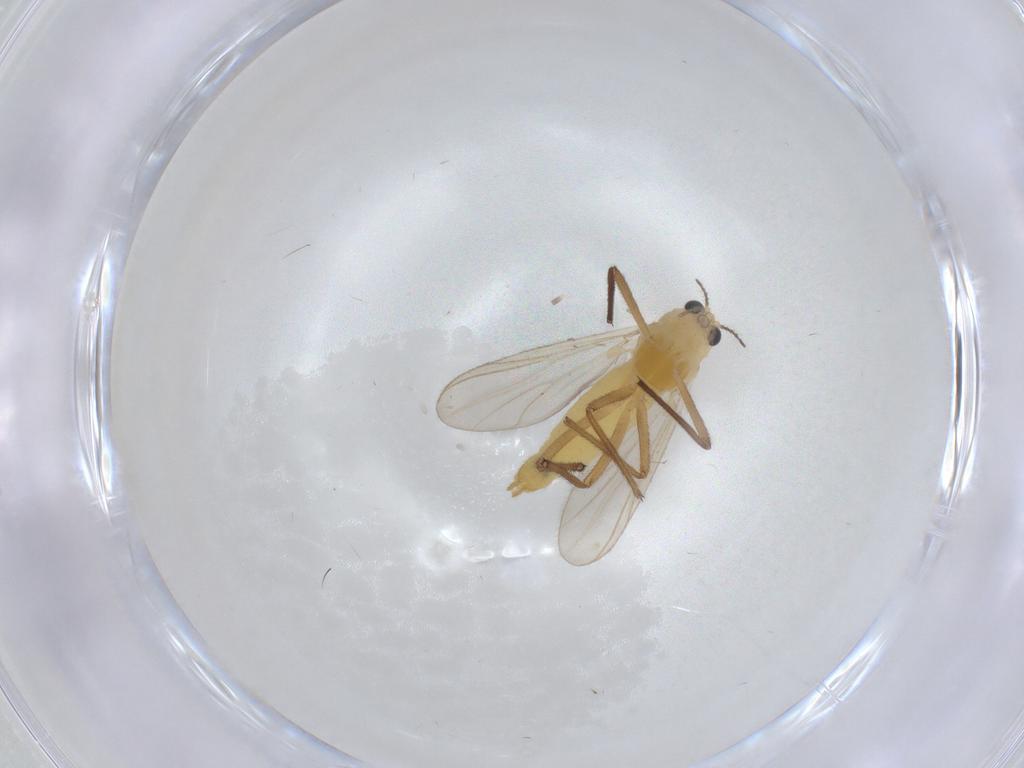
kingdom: Animalia
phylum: Arthropoda
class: Insecta
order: Diptera
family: Chironomidae
